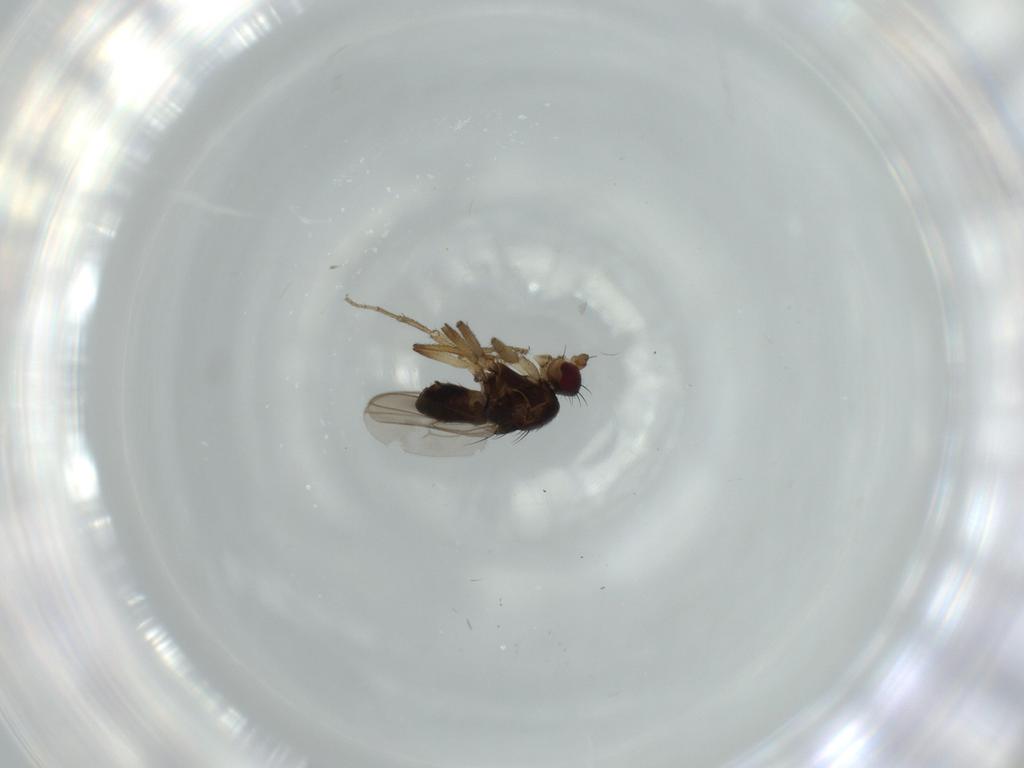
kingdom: Animalia
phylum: Arthropoda
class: Insecta
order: Diptera
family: Sphaeroceridae
